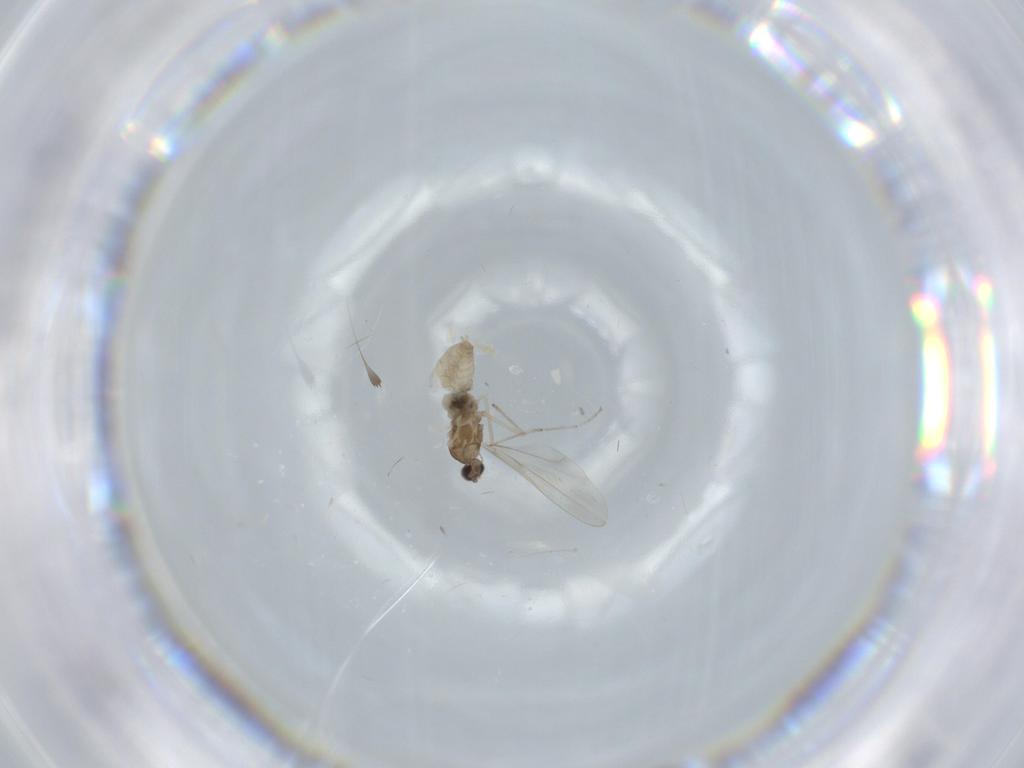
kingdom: Animalia
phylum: Arthropoda
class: Insecta
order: Diptera
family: Cecidomyiidae
